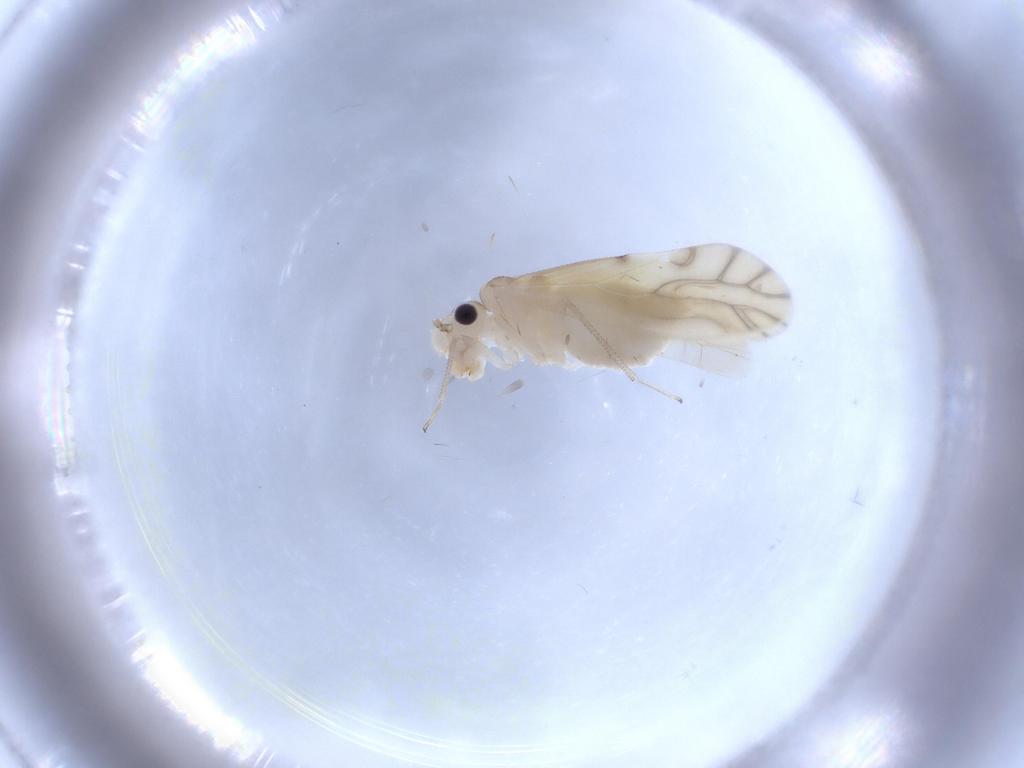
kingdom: Animalia
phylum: Arthropoda
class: Insecta
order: Psocodea
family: Caeciliusidae
